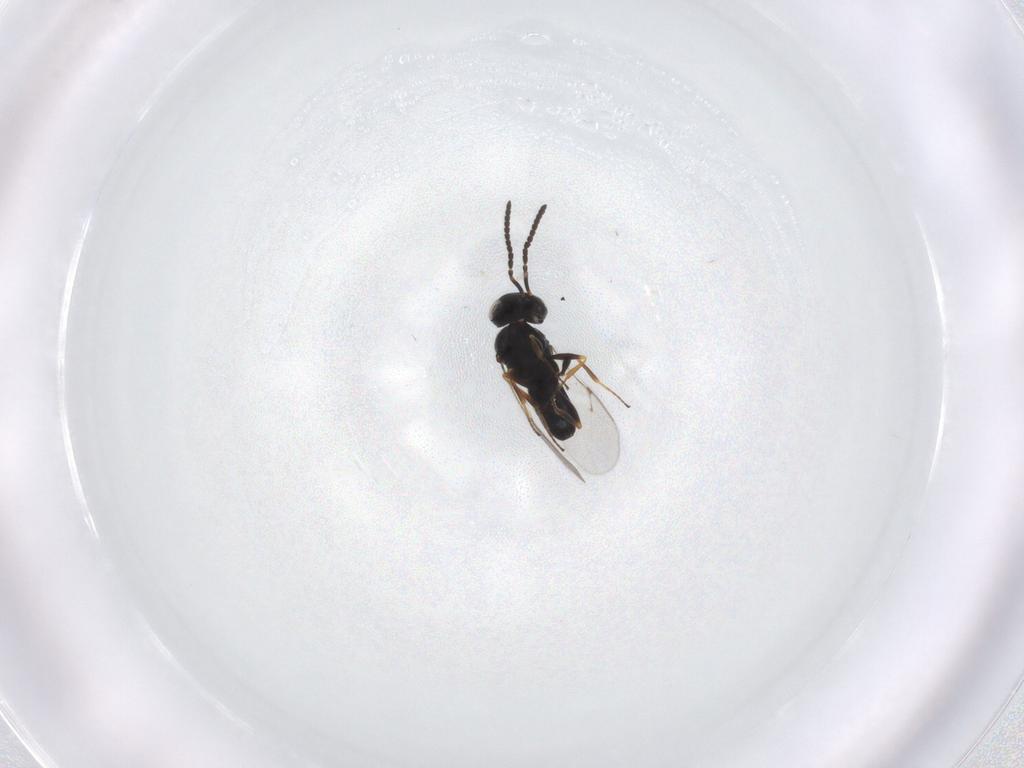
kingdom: Animalia
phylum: Arthropoda
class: Insecta
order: Hymenoptera
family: Scelionidae
